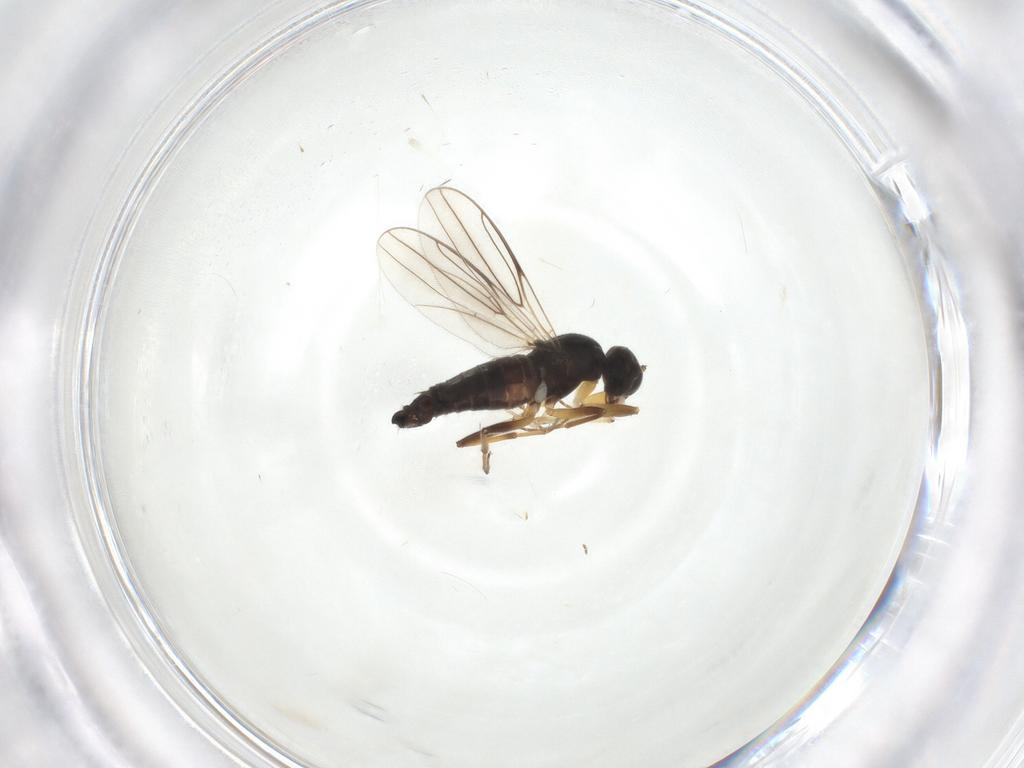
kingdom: Animalia
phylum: Arthropoda
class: Insecta
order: Diptera
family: Hybotidae
